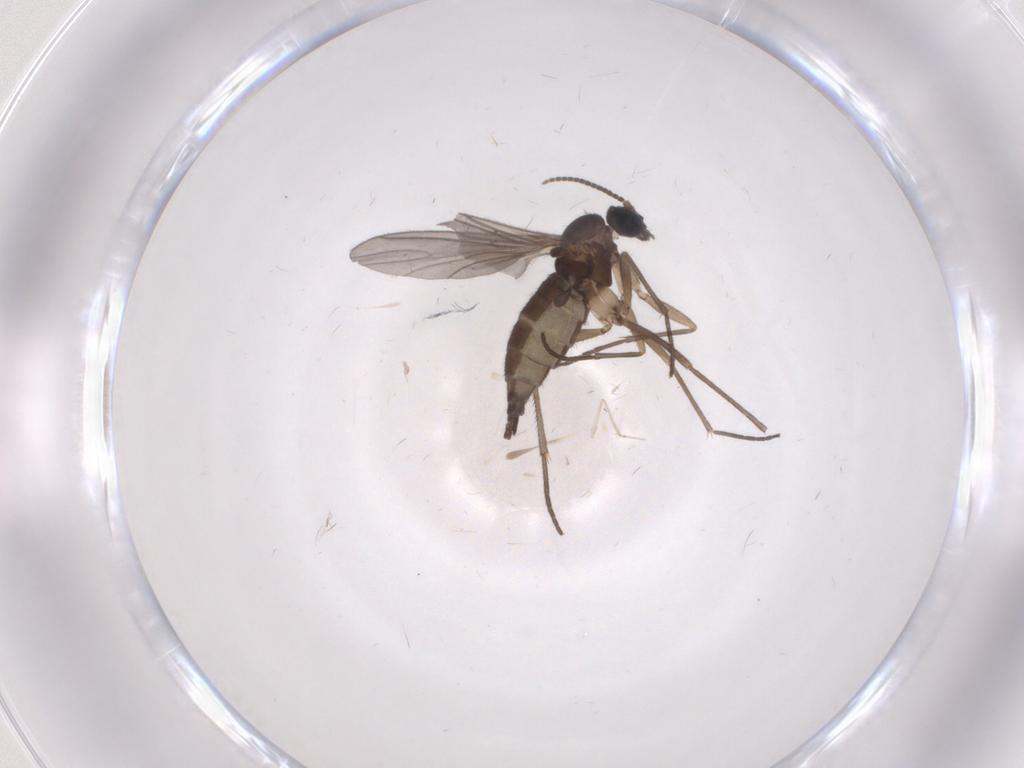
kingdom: Animalia
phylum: Arthropoda
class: Insecta
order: Diptera
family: Sciaridae
